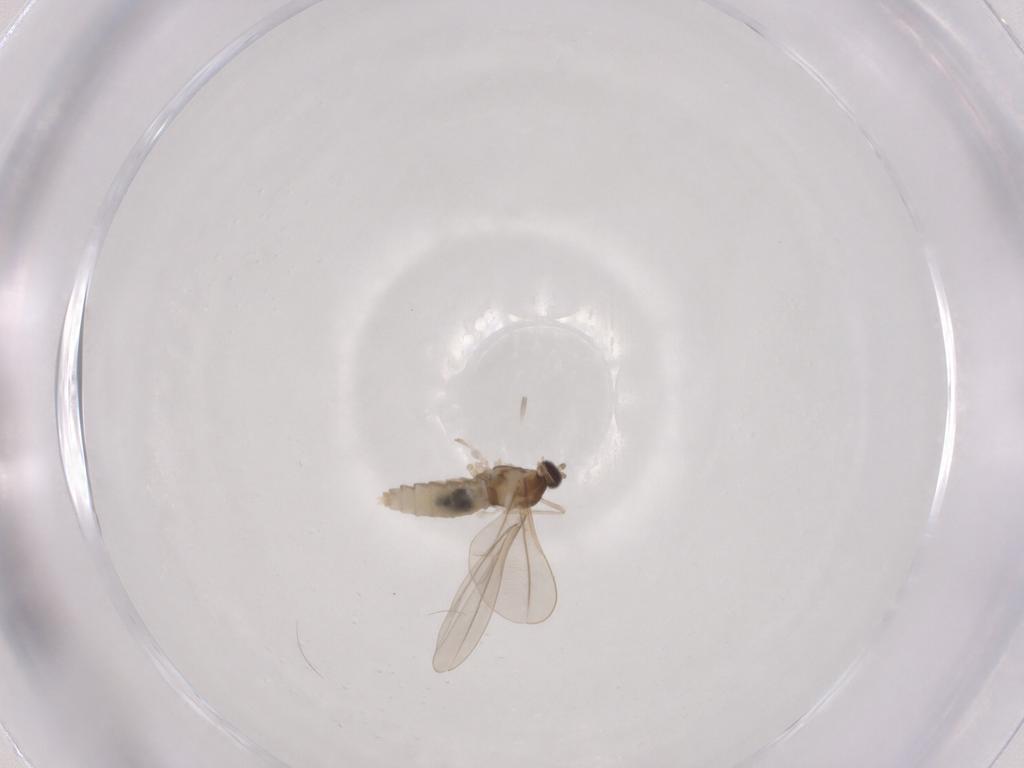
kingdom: Animalia
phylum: Arthropoda
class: Insecta
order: Diptera
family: Cecidomyiidae
